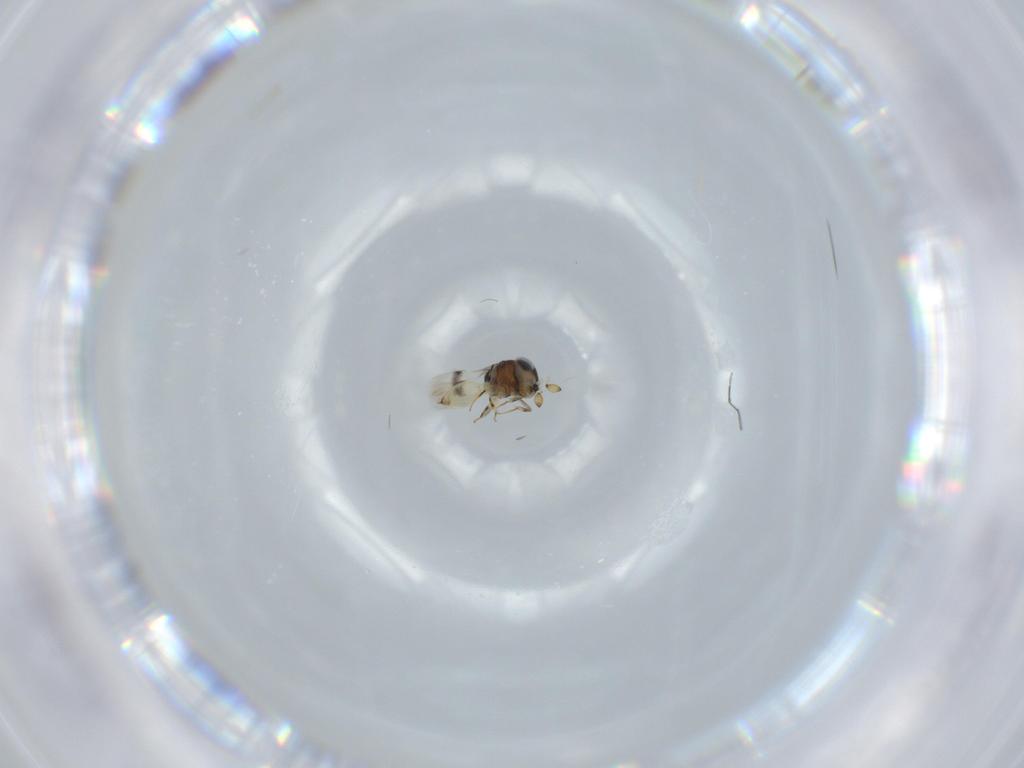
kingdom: Animalia
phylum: Arthropoda
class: Insecta
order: Hymenoptera
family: Scelionidae
